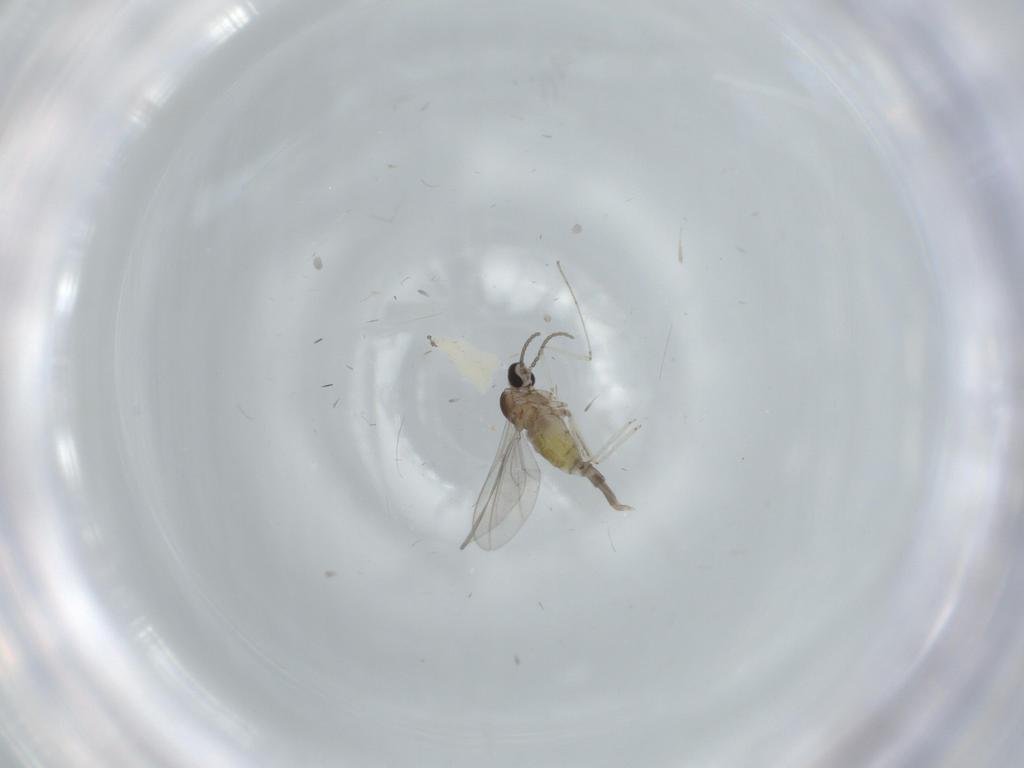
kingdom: Animalia
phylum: Arthropoda
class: Insecta
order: Diptera
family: Cecidomyiidae
